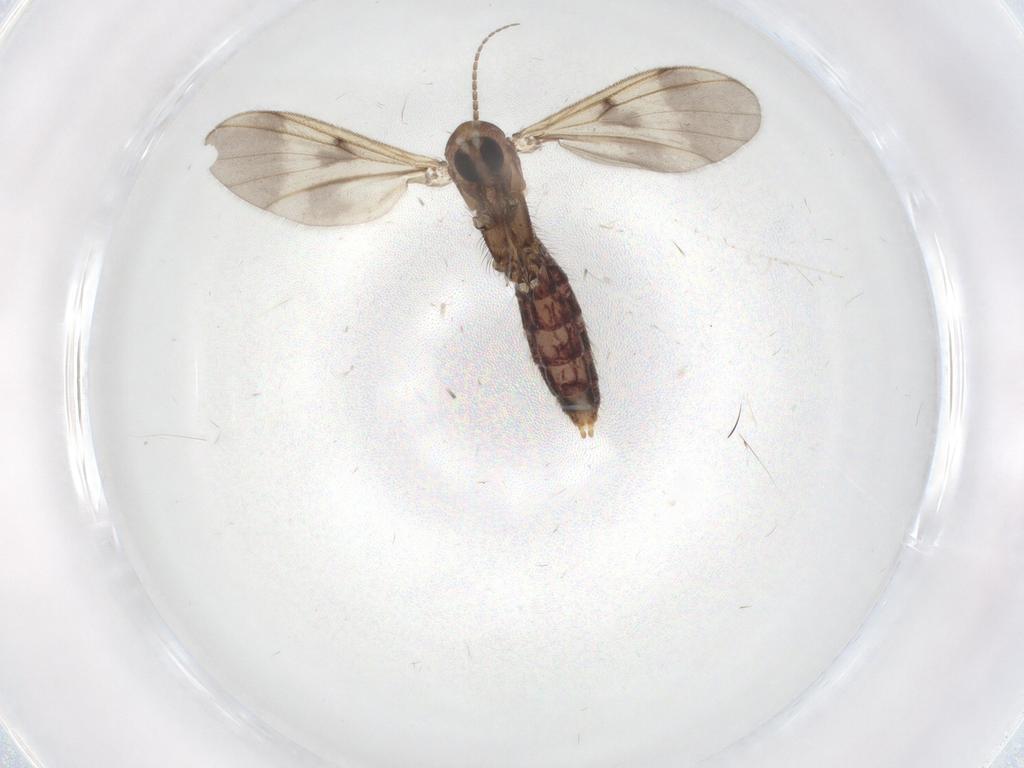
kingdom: Animalia
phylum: Arthropoda
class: Insecta
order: Diptera
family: Mycetophilidae
